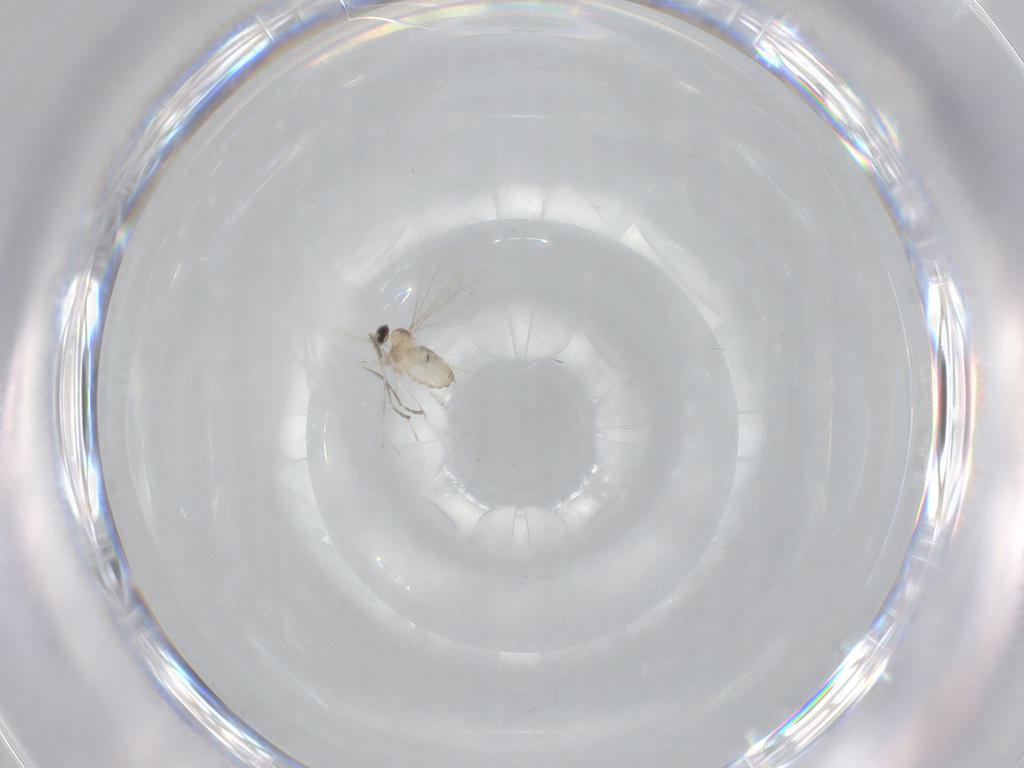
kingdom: Animalia
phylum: Arthropoda
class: Insecta
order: Diptera
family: Cecidomyiidae
